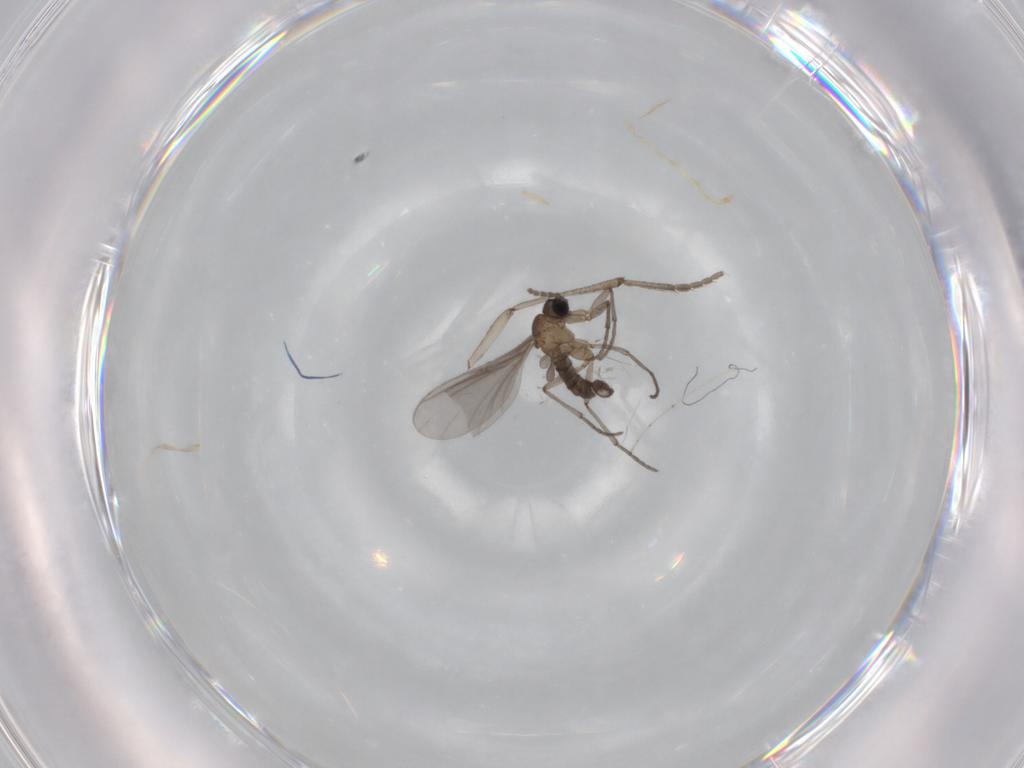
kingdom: Animalia
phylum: Arthropoda
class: Insecta
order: Diptera
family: Sciaridae
